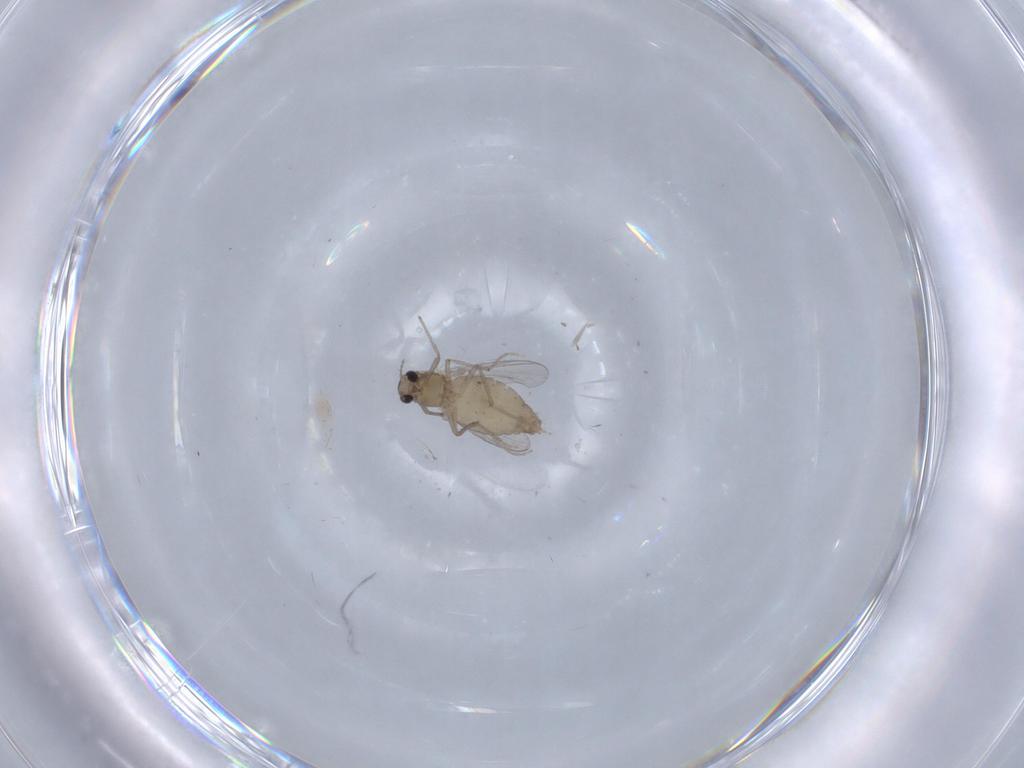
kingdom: Animalia
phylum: Arthropoda
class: Insecta
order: Diptera
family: Chironomidae
